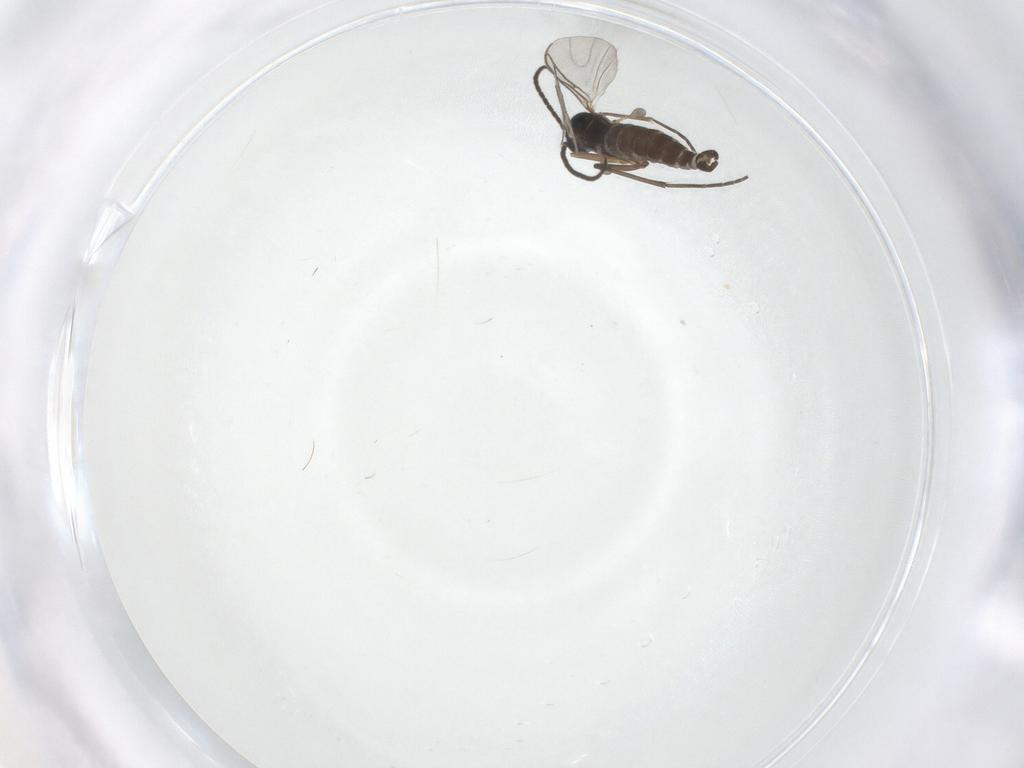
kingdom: Animalia
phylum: Arthropoda
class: Insecta
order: Diptera
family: Sciaridae
